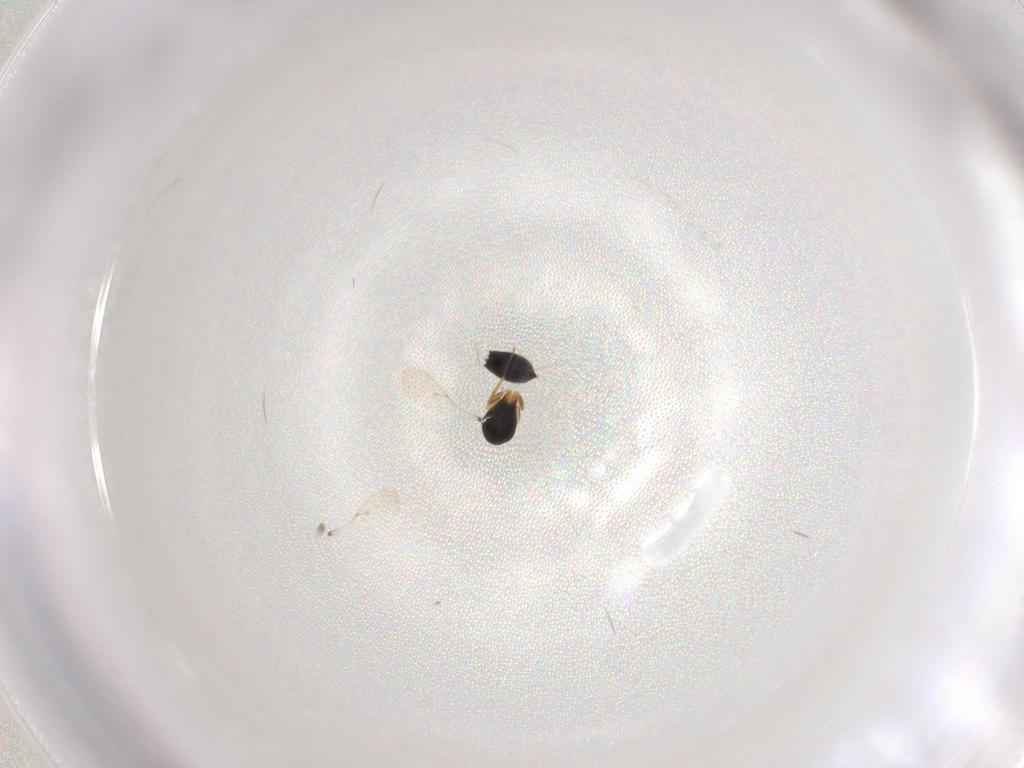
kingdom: Animalia
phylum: Arthropoda
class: Insecta
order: Hymenoptera
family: Scelionidae
